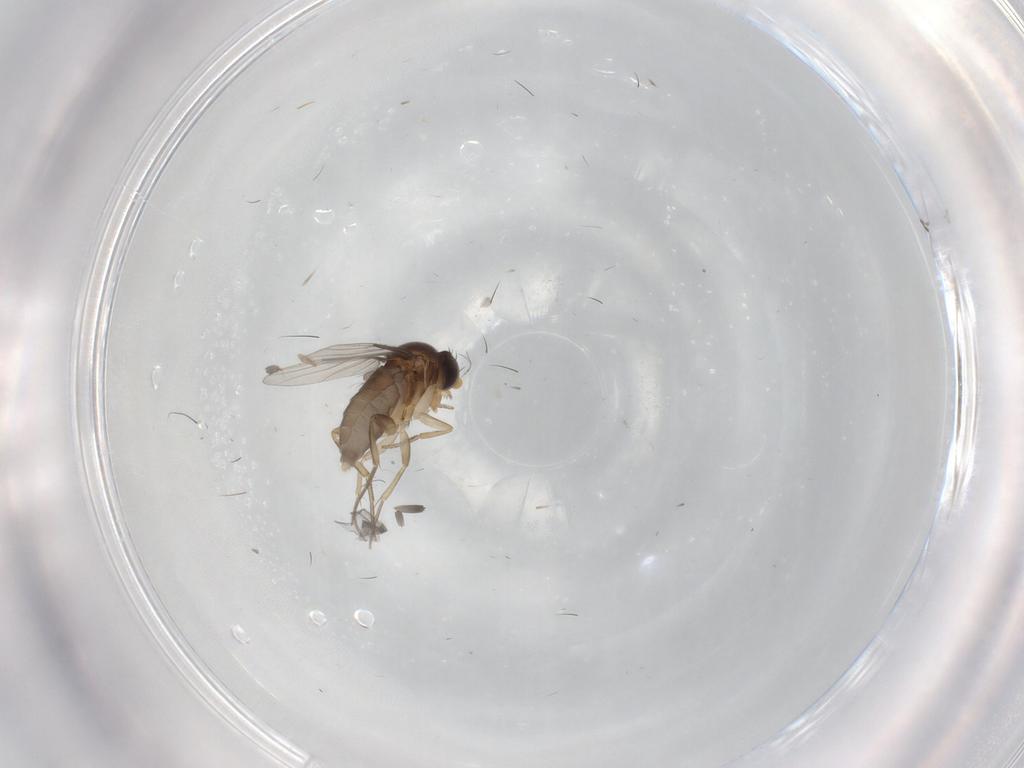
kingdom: Animalia
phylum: Arthropoda
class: Insecta
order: Diptera
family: Phoridae
